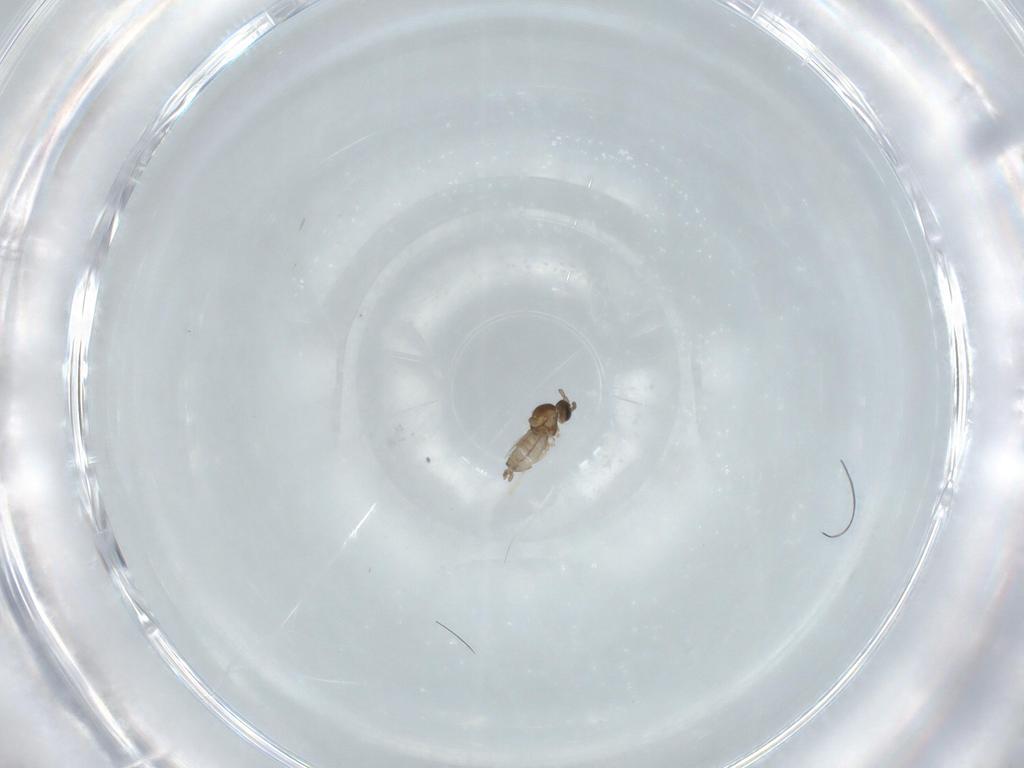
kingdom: Animalia
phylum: Arthropoda
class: Insecta
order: Diptera
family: Cecidomyiidae
